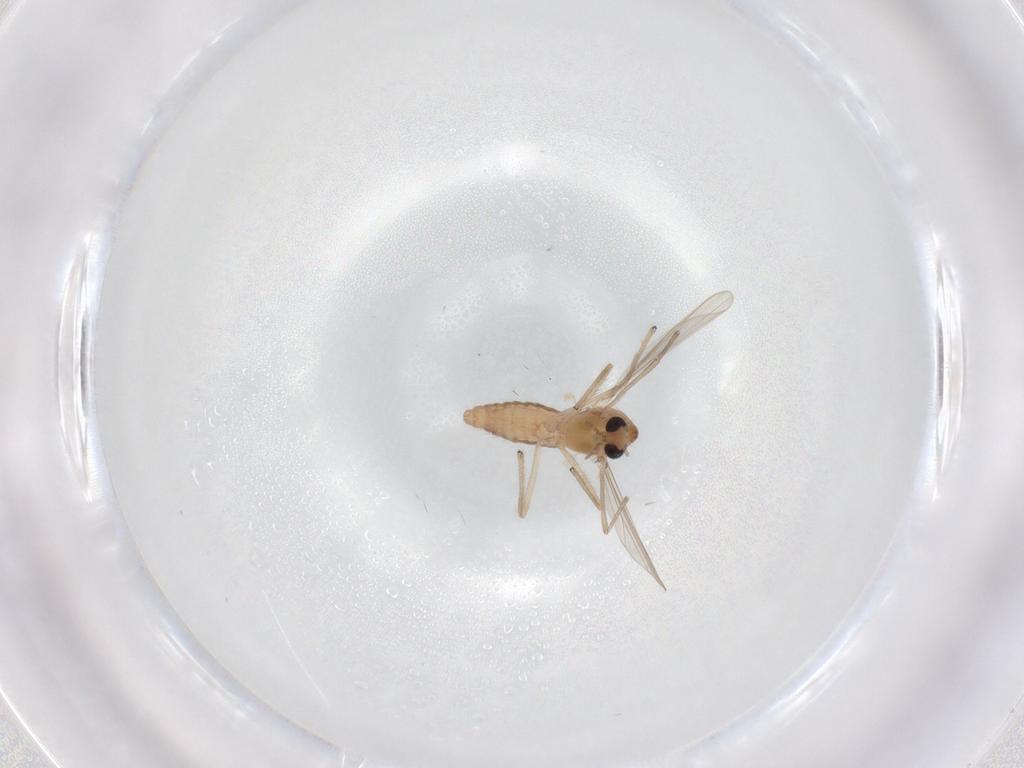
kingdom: Animalia
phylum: Arthropoda
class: Insecta
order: Diptera
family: Chironomidae
